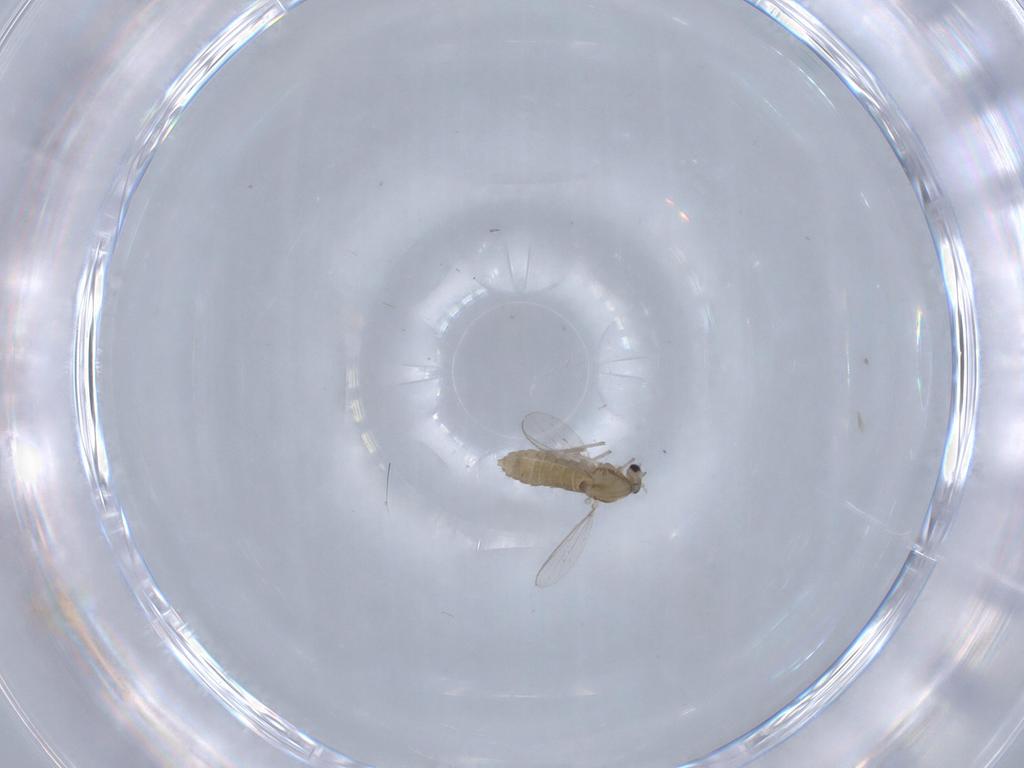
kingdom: Animalia
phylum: Arthropoda
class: Insecta
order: Diptera
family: Chironomidae
